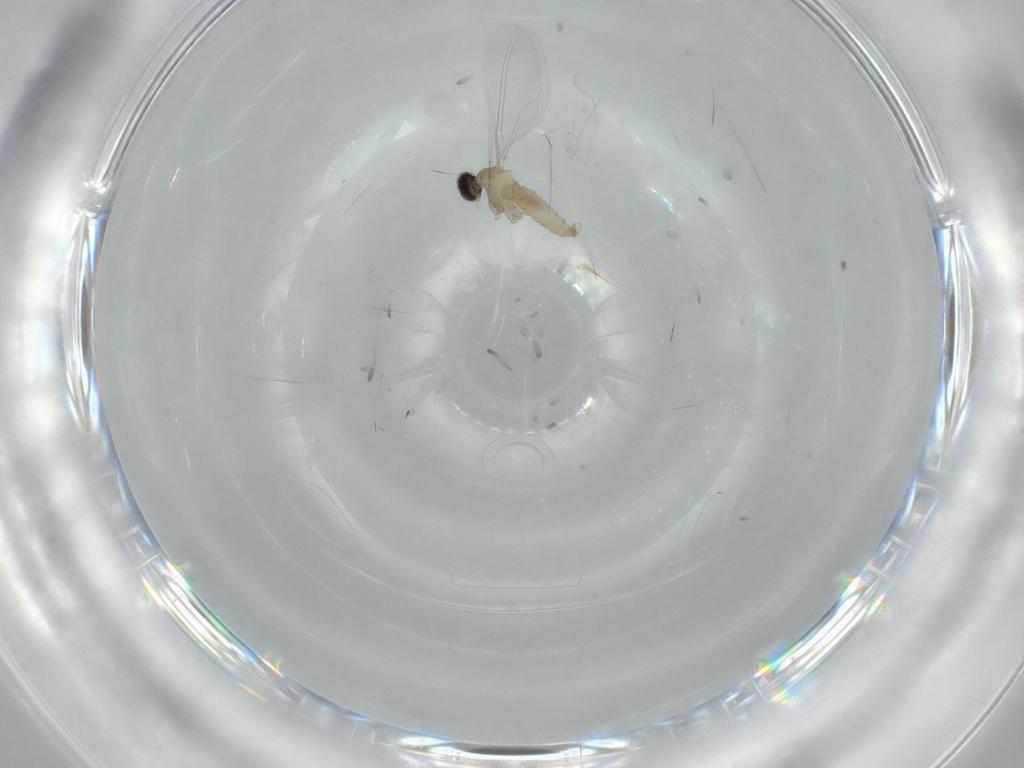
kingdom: Animalia
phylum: Arthropoda
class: Insecta
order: Diptera
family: Cecidomyiidae
